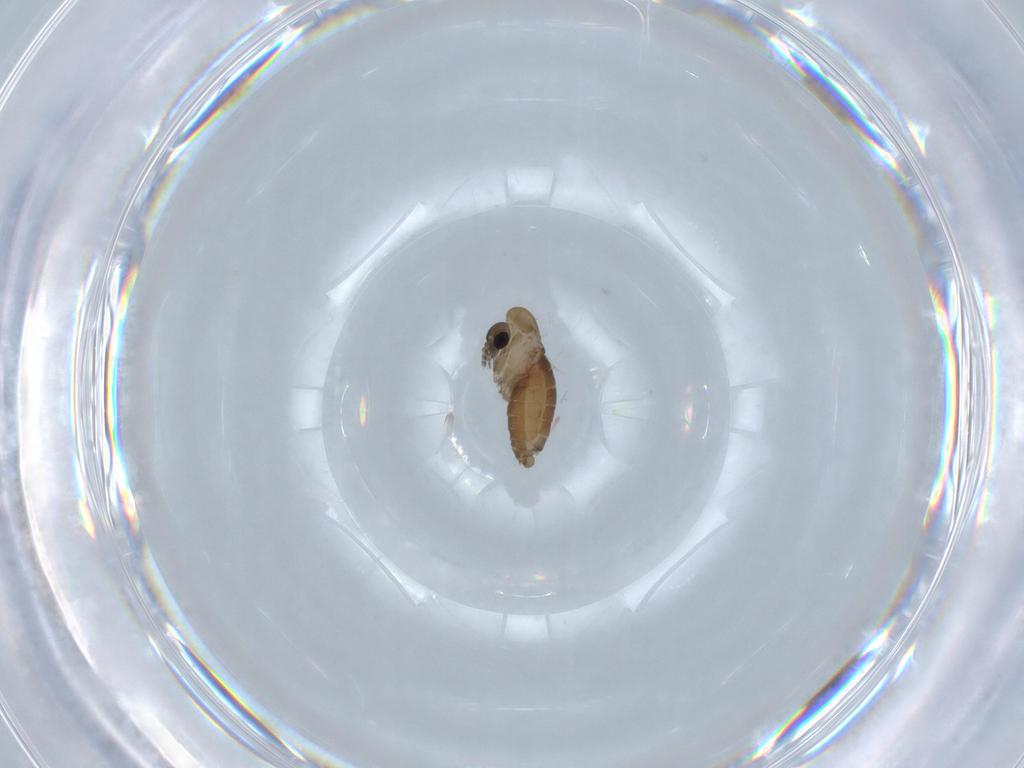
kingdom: Animalia
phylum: Arthropoda
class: Insecta
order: Diptera
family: Psychodidae
